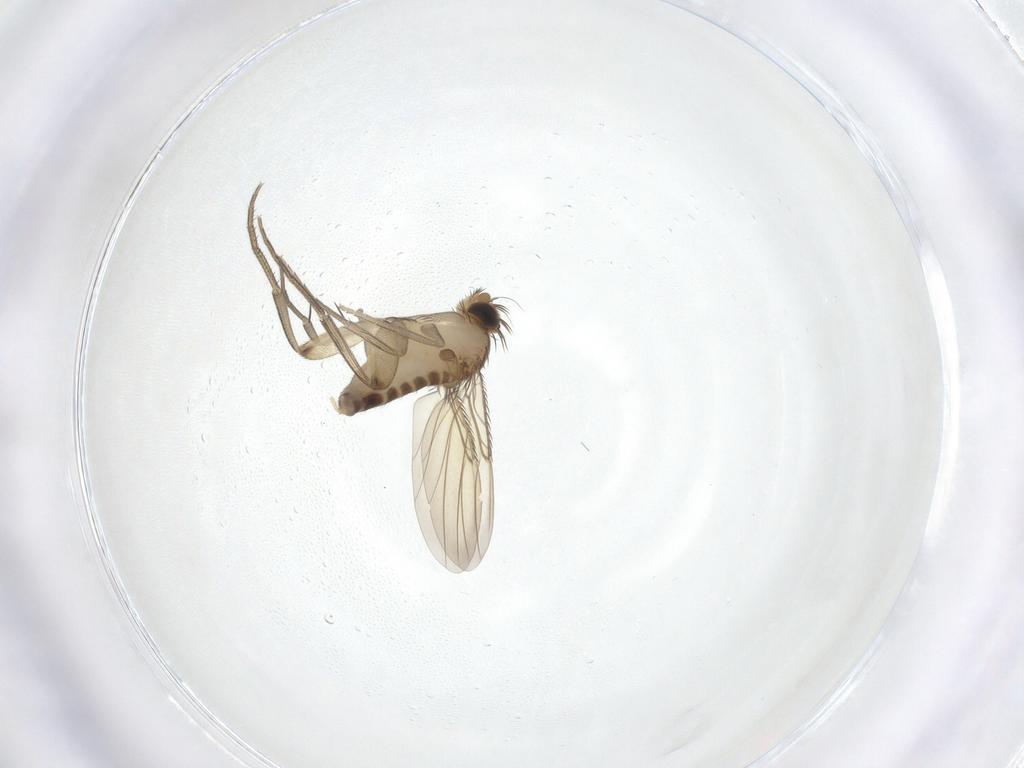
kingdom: Animalia
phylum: Arthropoda
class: Insecta
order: Diptera
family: Phoridae
